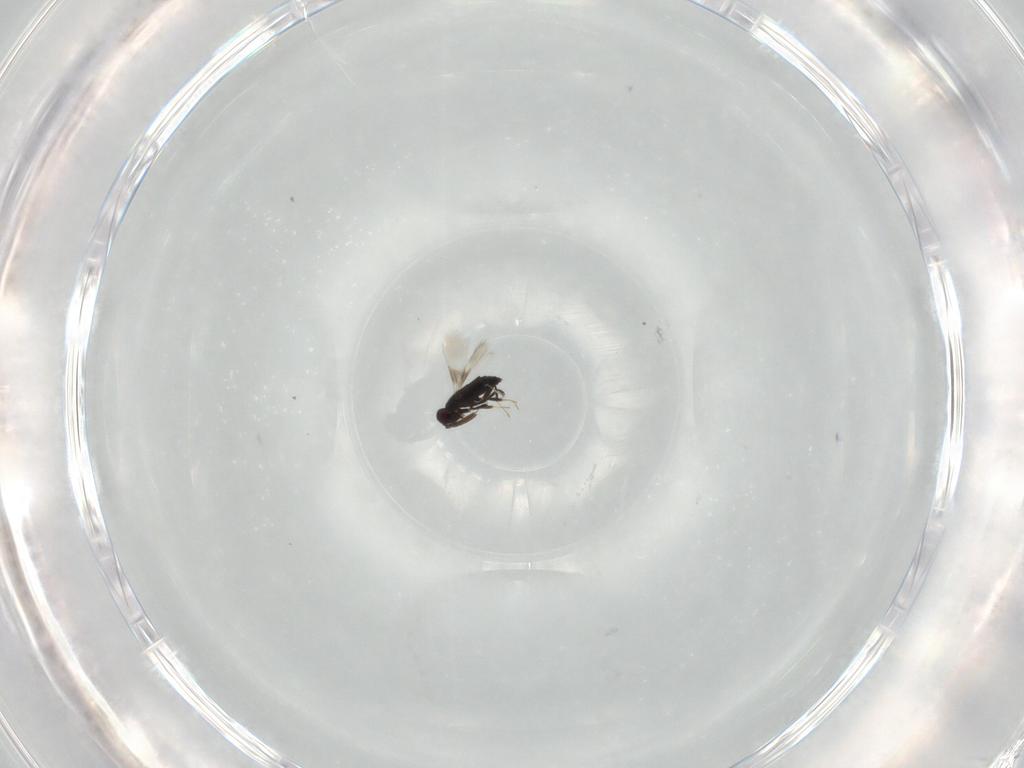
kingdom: Animalia
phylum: Arthropoda
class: Insecta
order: Hymenoptera
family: Signiphoridae
